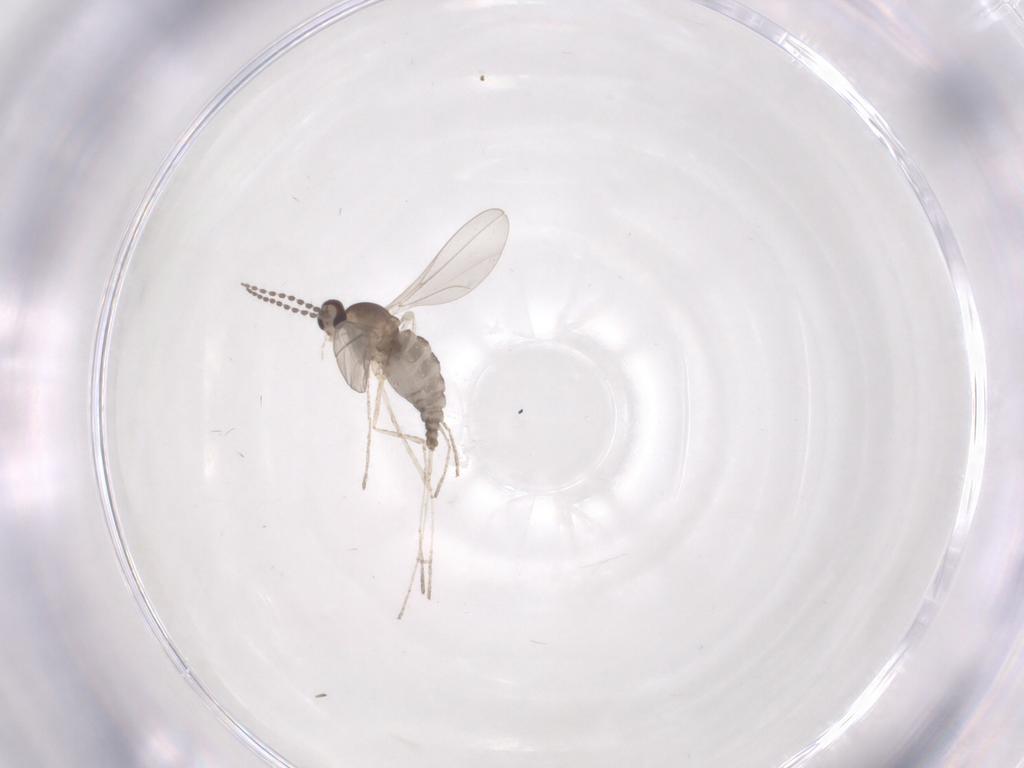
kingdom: Animalia
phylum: Arthropoda
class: Insecta
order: Diptera
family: Cecidomyiidae
